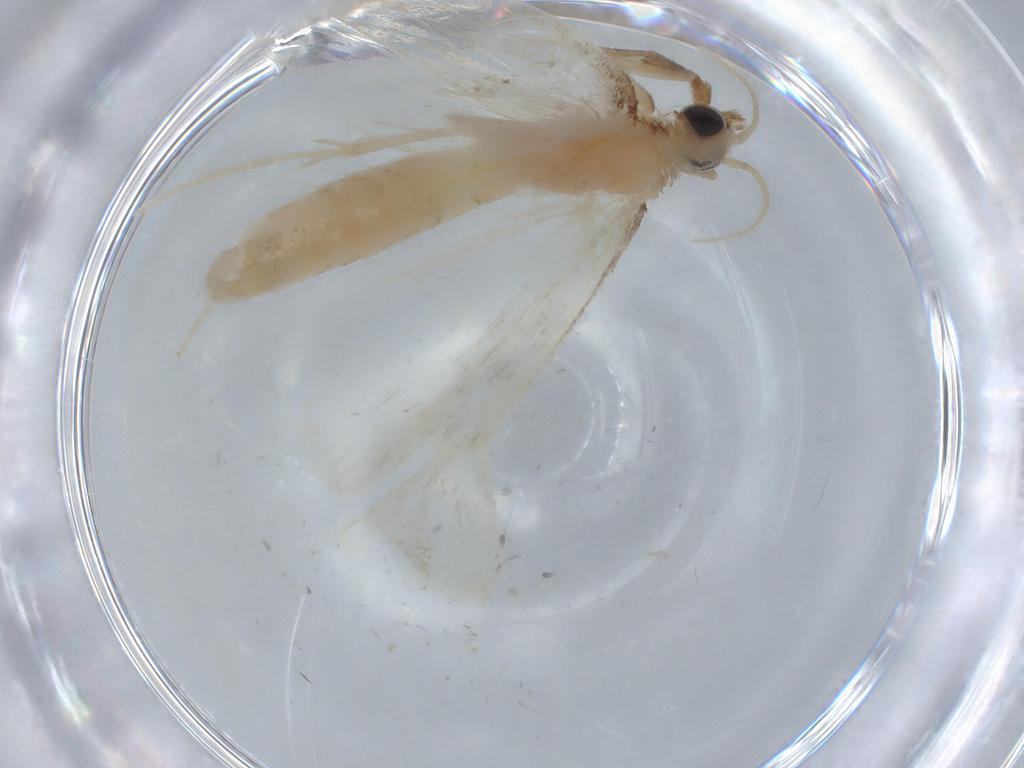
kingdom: Animalia
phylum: Arthropoda
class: Insecta
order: Lepidoptera
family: Crambidae
